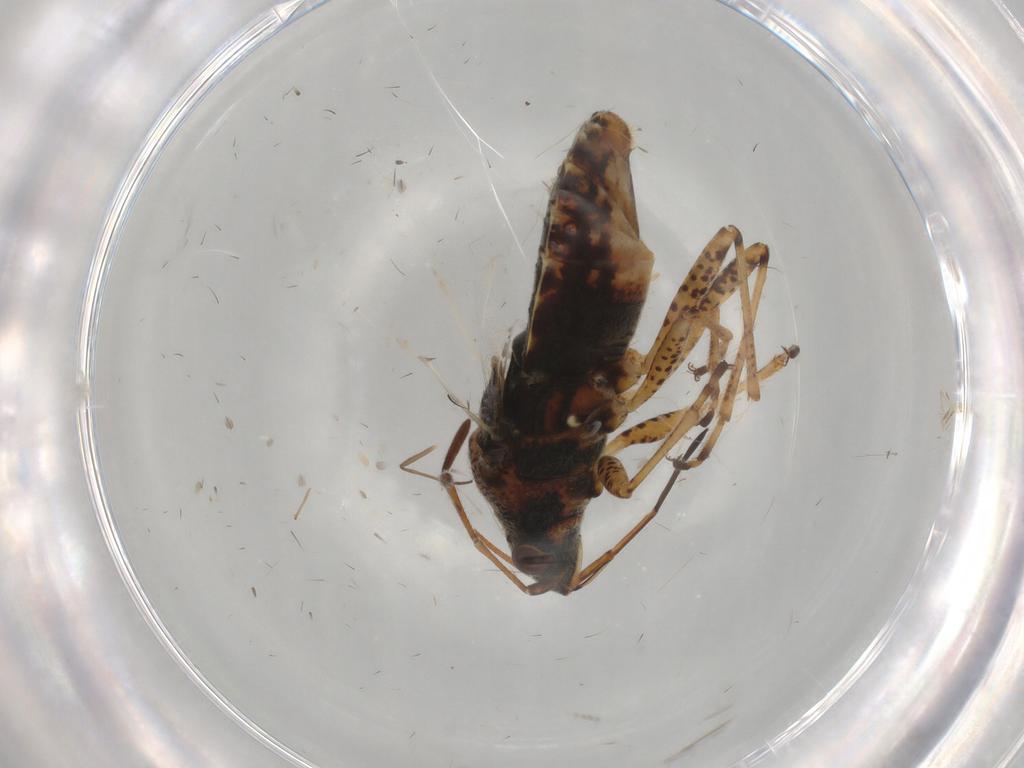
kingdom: Animalia
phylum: Arthropoda
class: Insecta
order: Hemiptera
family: Lygaeidae
